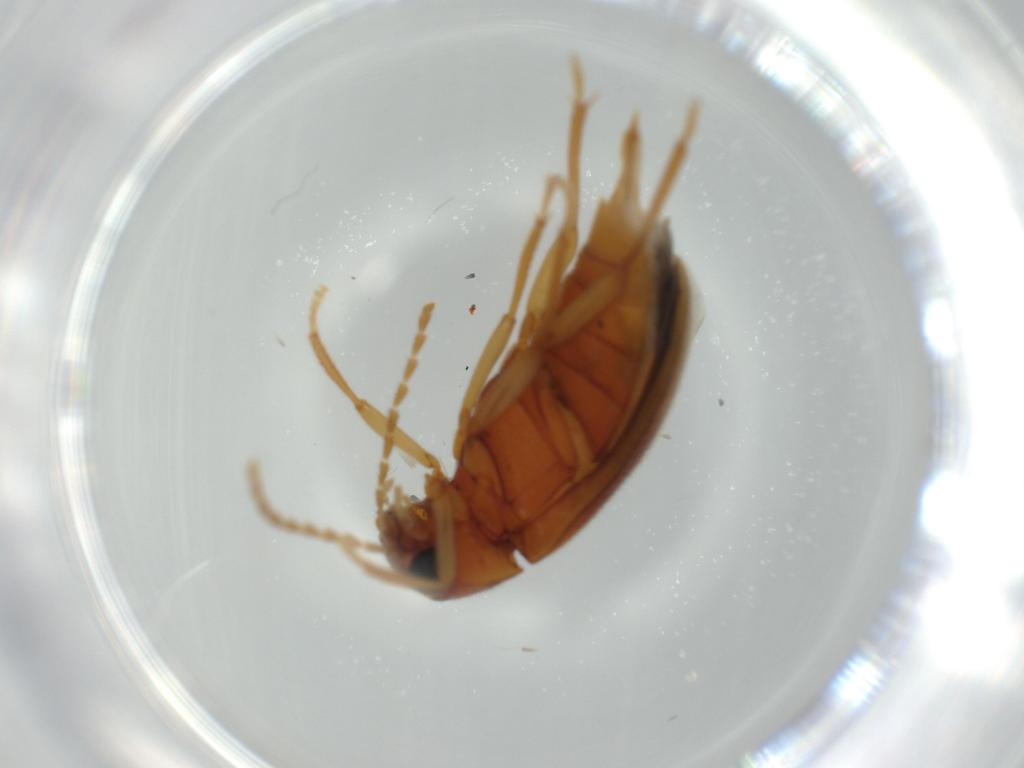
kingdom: Animalia
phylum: Arthropoda
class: Insecta
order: Coleoptera
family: Ptilodactylidae
